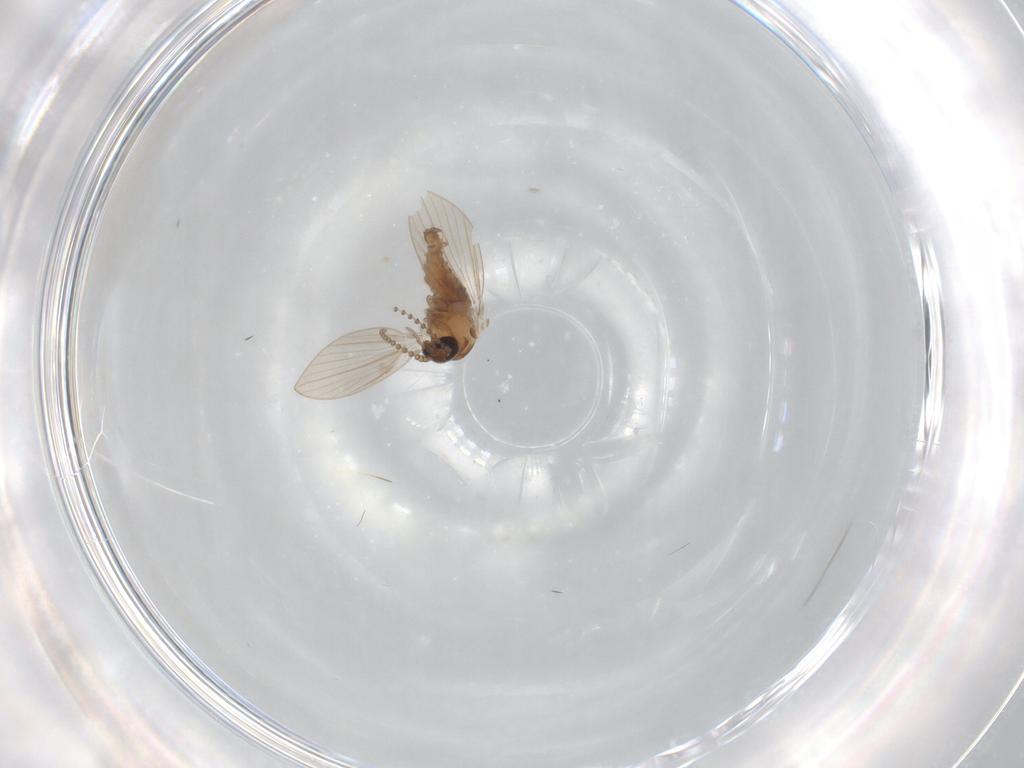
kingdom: Animalia
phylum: Arthropoda
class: Insecta
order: Diptera
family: Psychodidae
